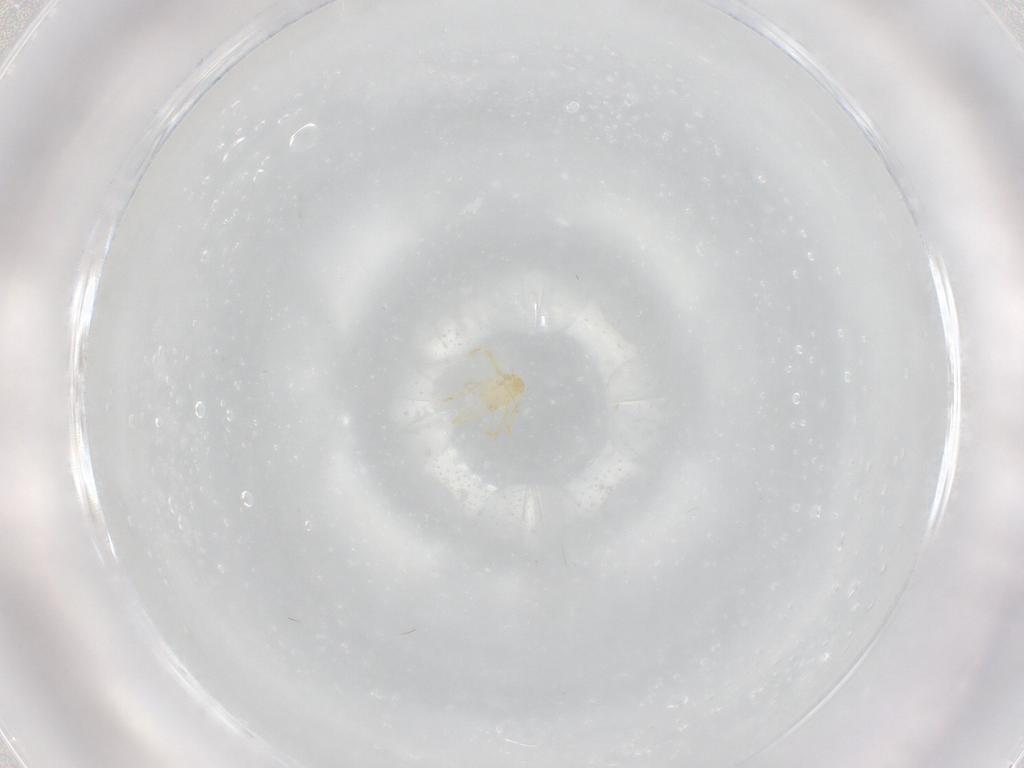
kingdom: Animalia
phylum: Arthropoda
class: Arachnida
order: Trombidiformes
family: Erythraeidae
